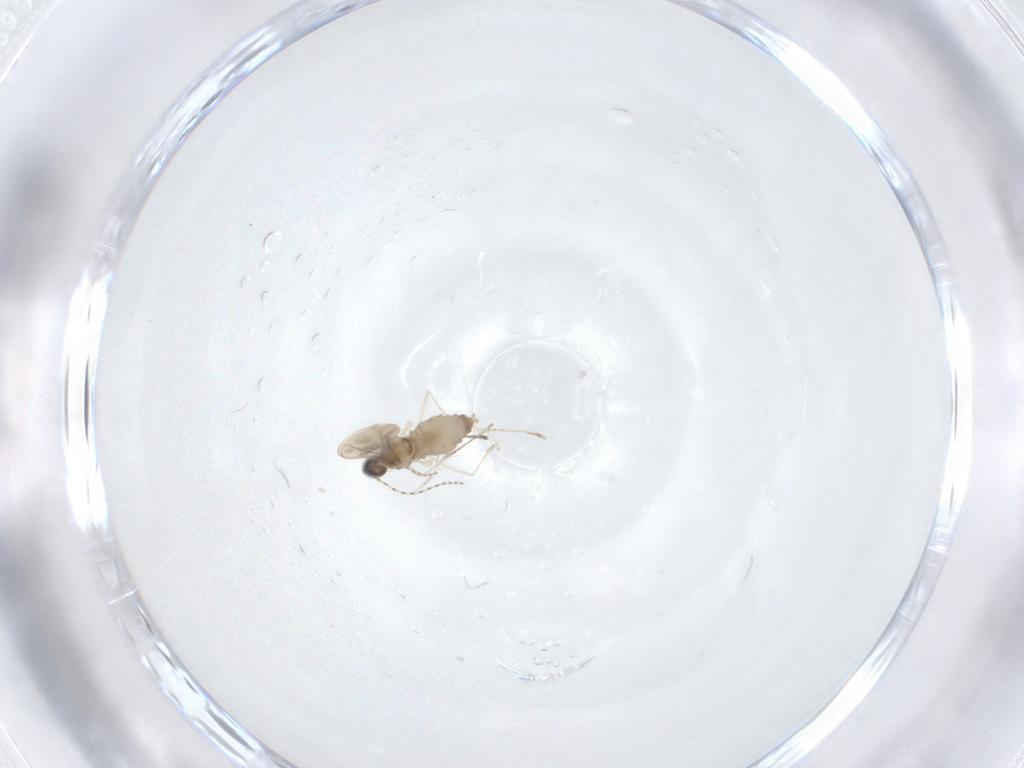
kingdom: Animalia
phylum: Arthropoda
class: Insecta
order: Diptera
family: Cecidomyiidae
